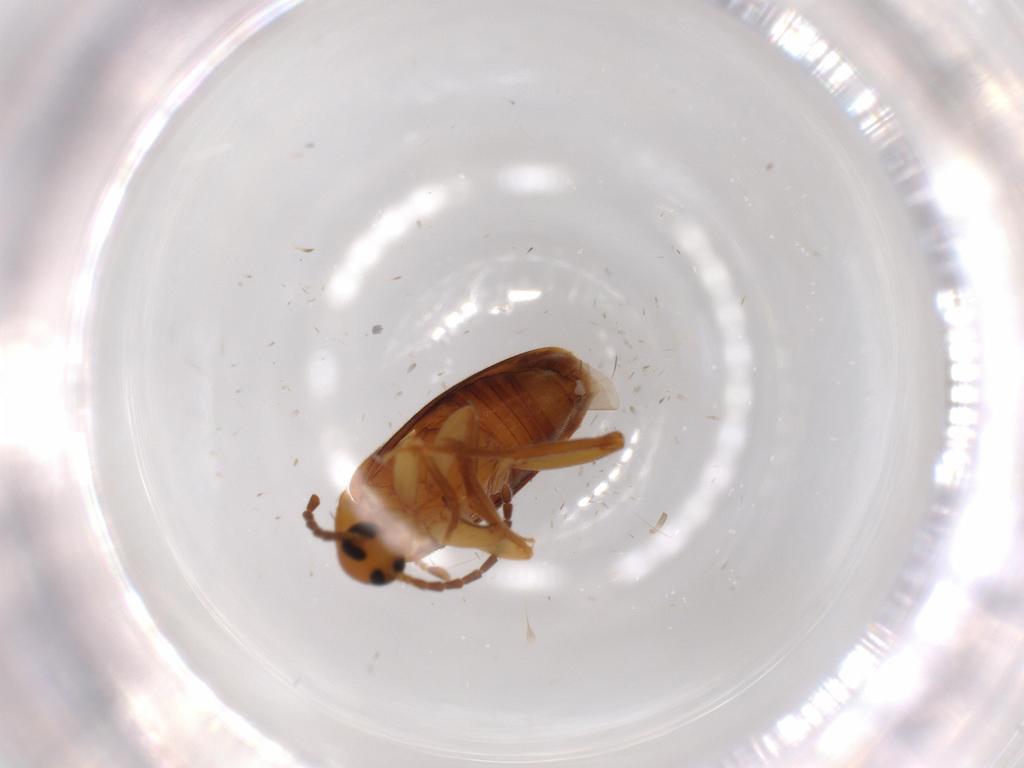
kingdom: Animalia
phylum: Arthropoda
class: Insecta
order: Coleoptera
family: Scraptiidae
